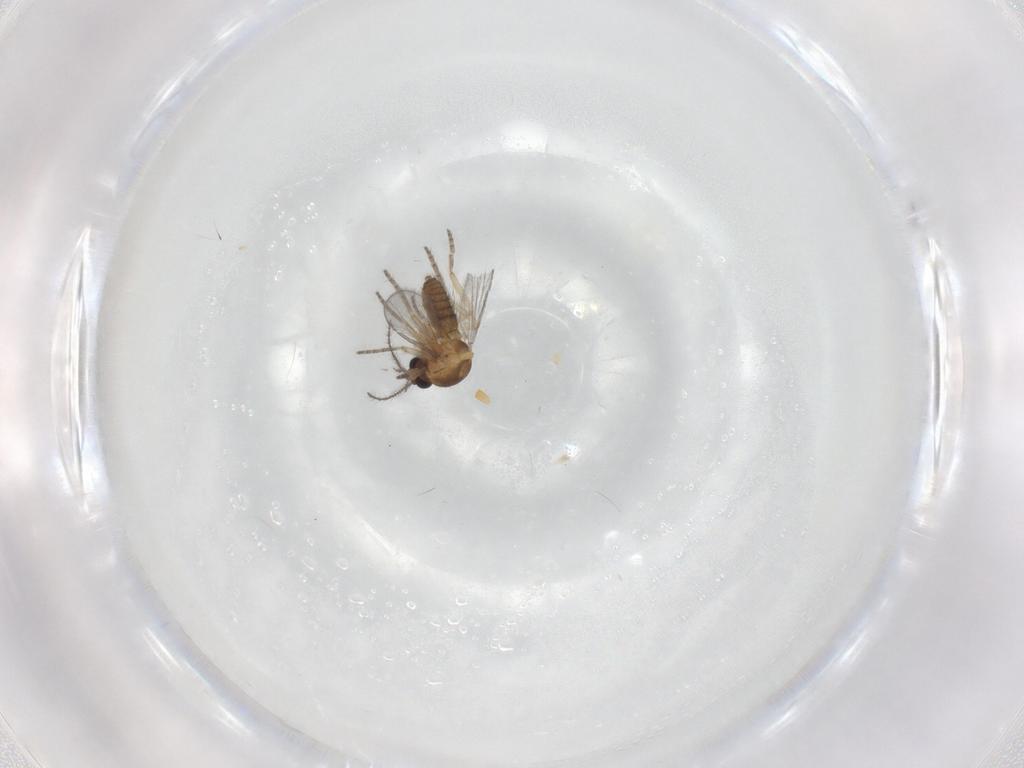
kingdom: Animalia
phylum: Arthropoda
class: Insecta
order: Diptera
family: Ceratopogonidae
